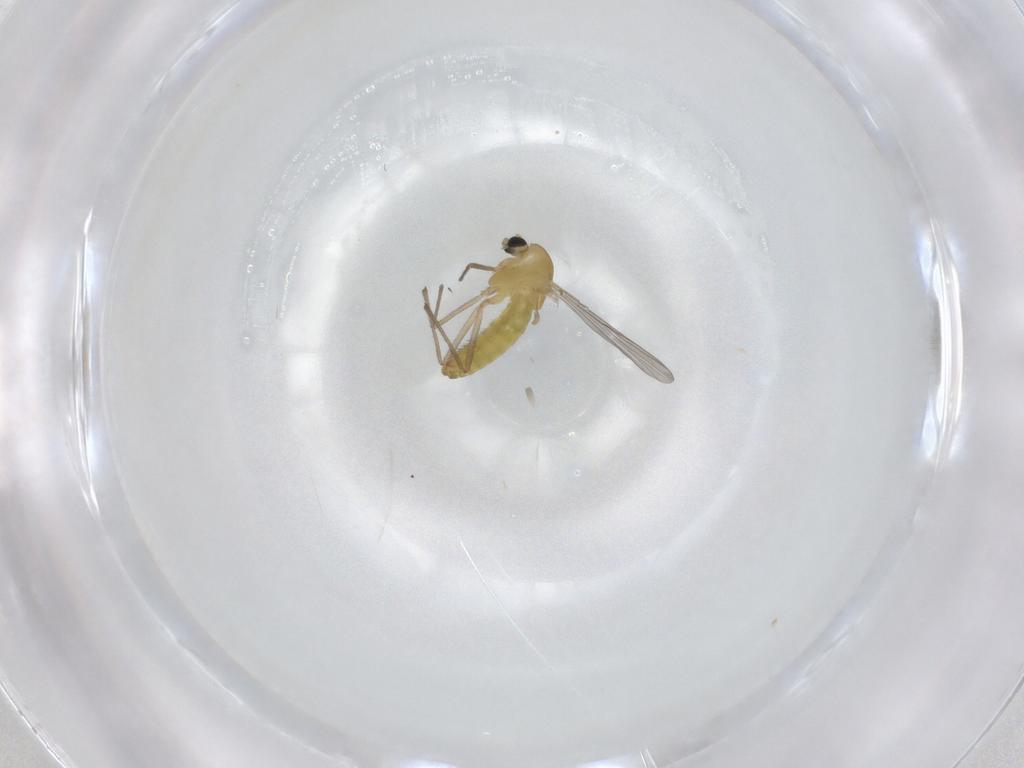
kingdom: Animalia
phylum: Arthropoda
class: Insecta
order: Diptera
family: Chironomidae
